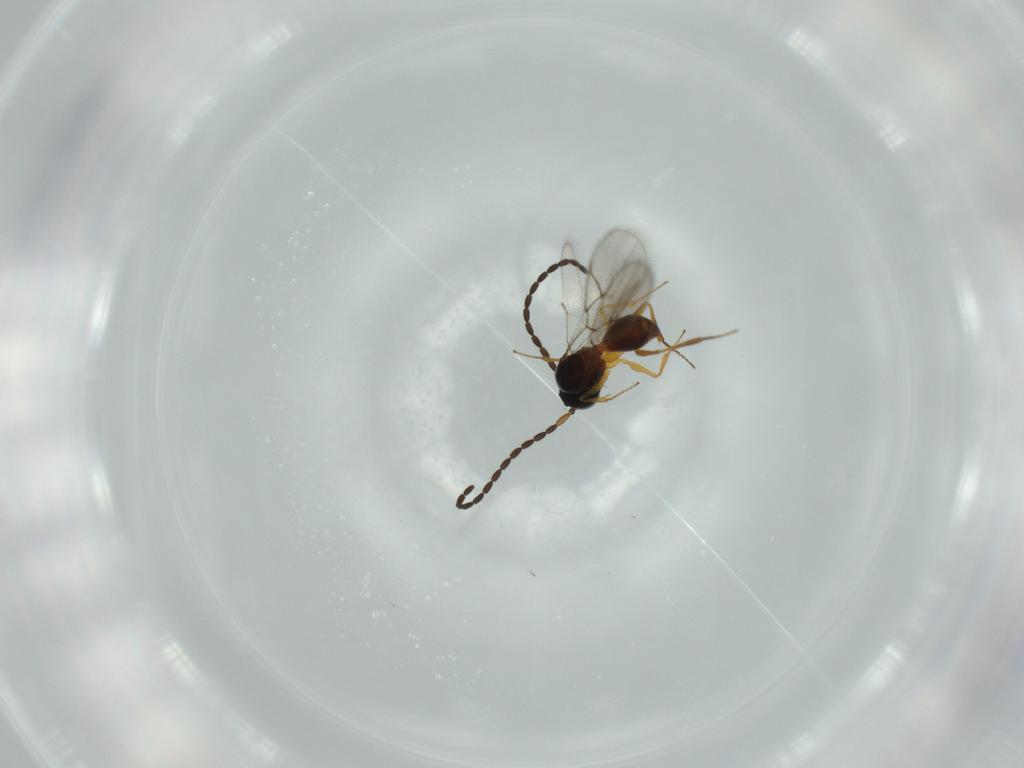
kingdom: Animalia
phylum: Arthropoda
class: Insecta
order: Hymenoptera
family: Figitidae
